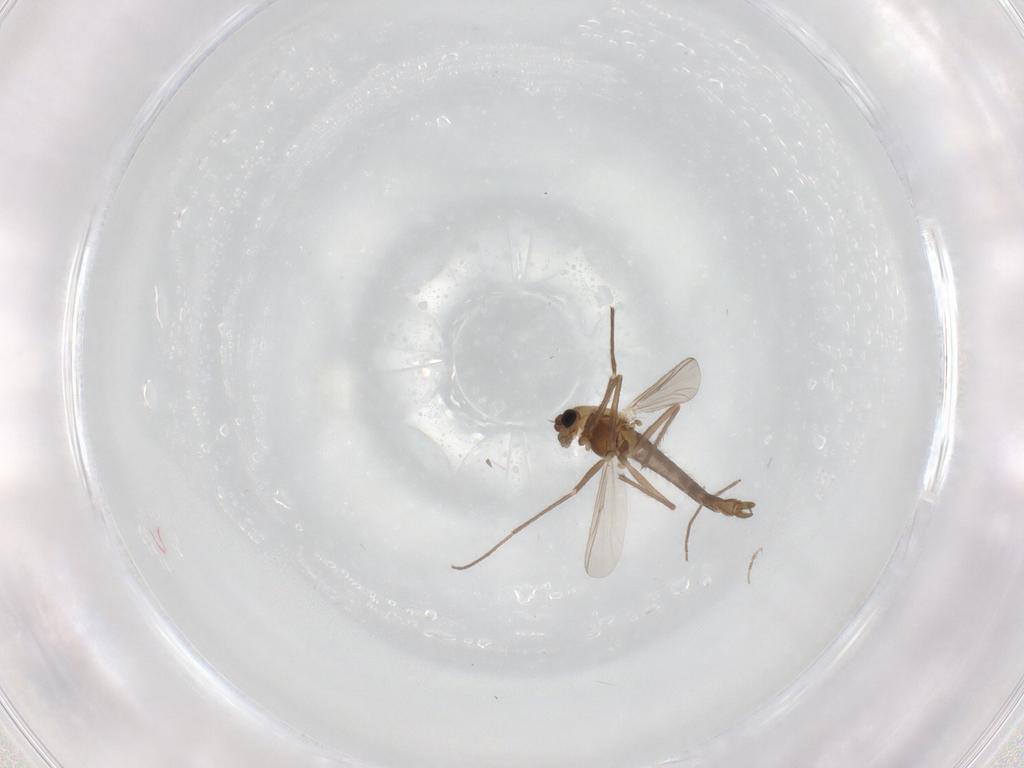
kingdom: Animalia
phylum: Arthropoda
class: Insecta
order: Diptera
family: Chironomidae
